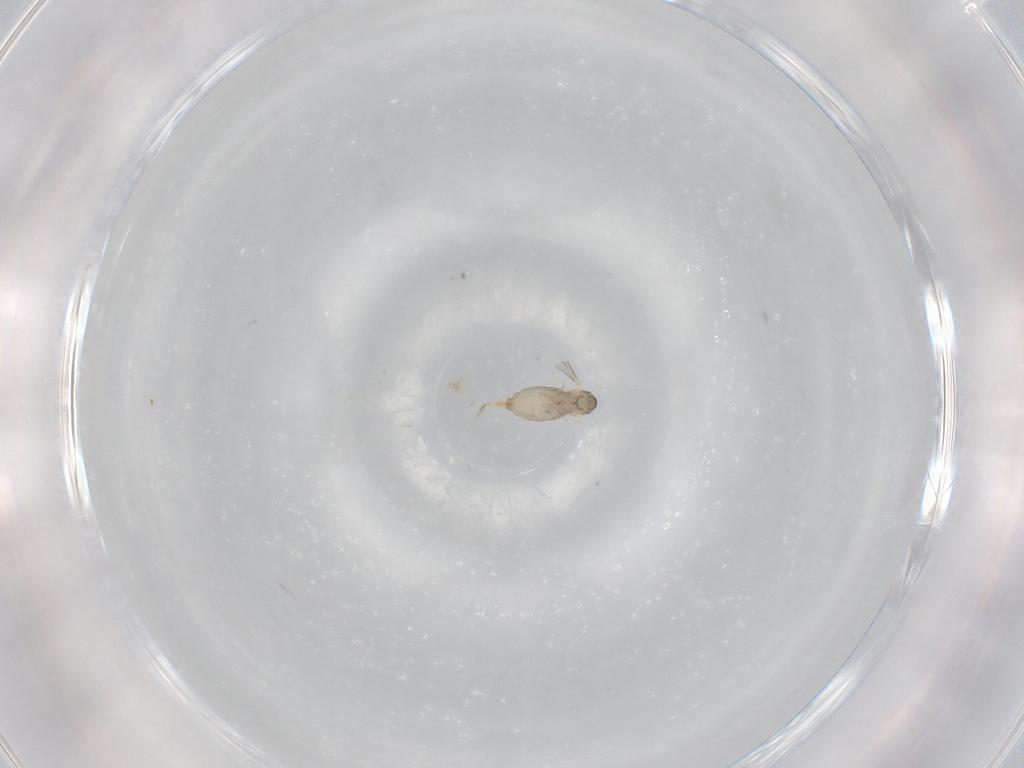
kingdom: Animalia
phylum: Arthropoda
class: Insecta
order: Diptera
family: Cecidomyiidae
